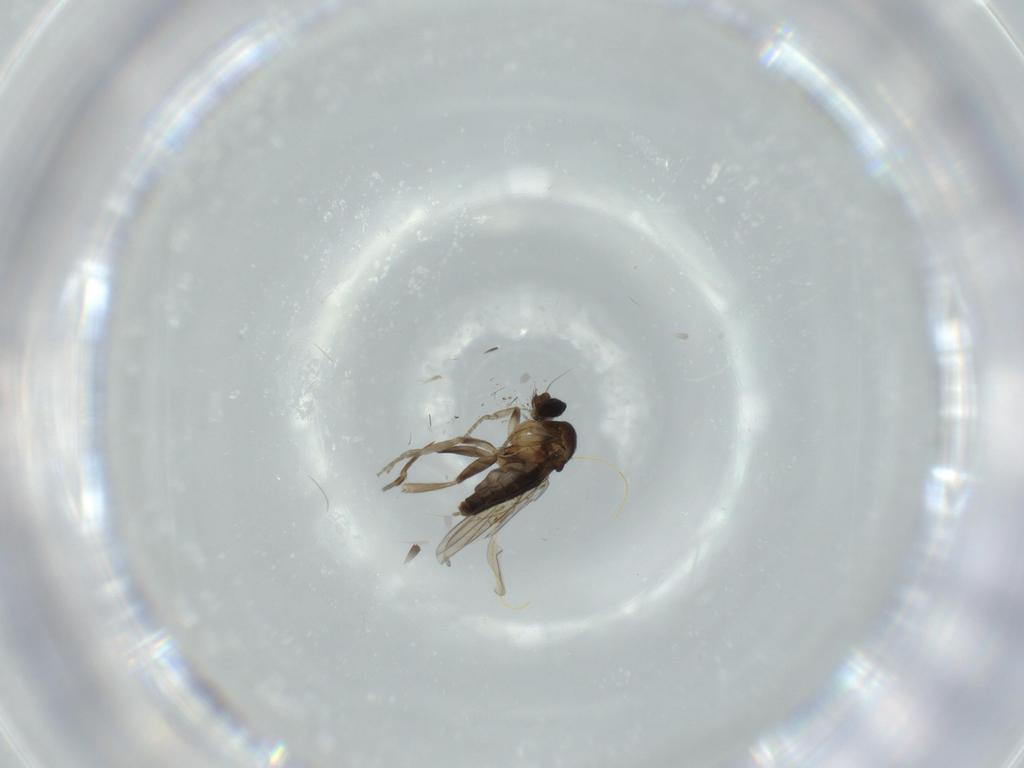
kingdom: Animalia
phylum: Arthropoda
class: Insecta
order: Diptera
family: Phoridae
